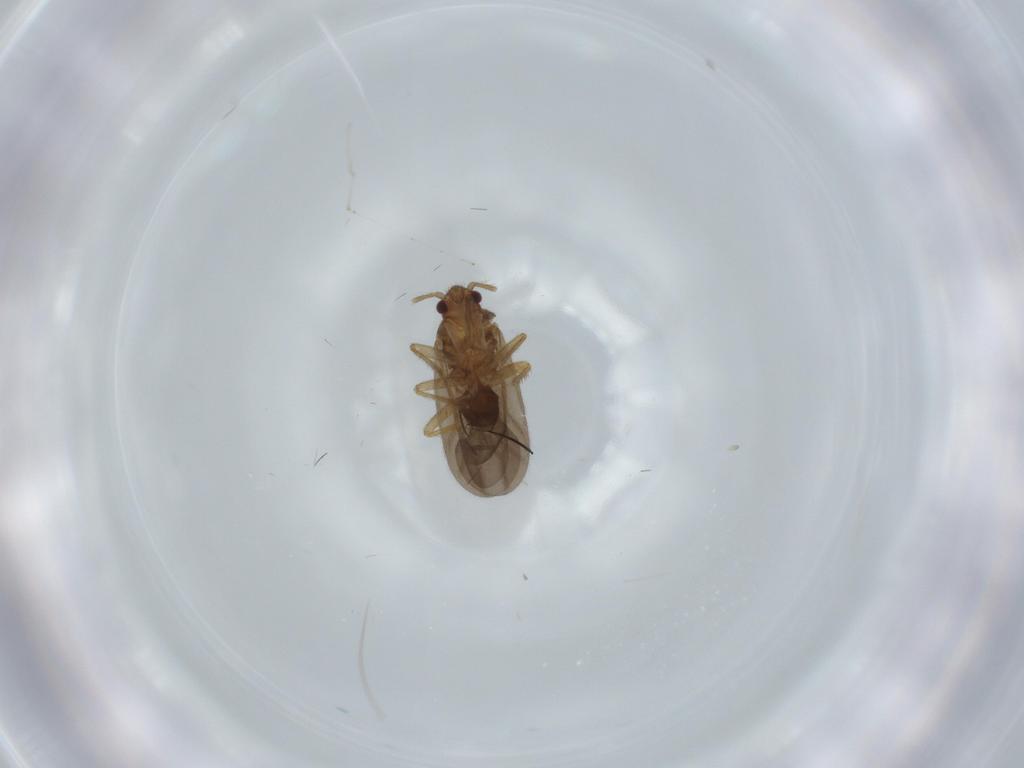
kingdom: Animalia
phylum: Arthropoda
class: Insecta
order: Hemiptera
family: Ceratocombidae
